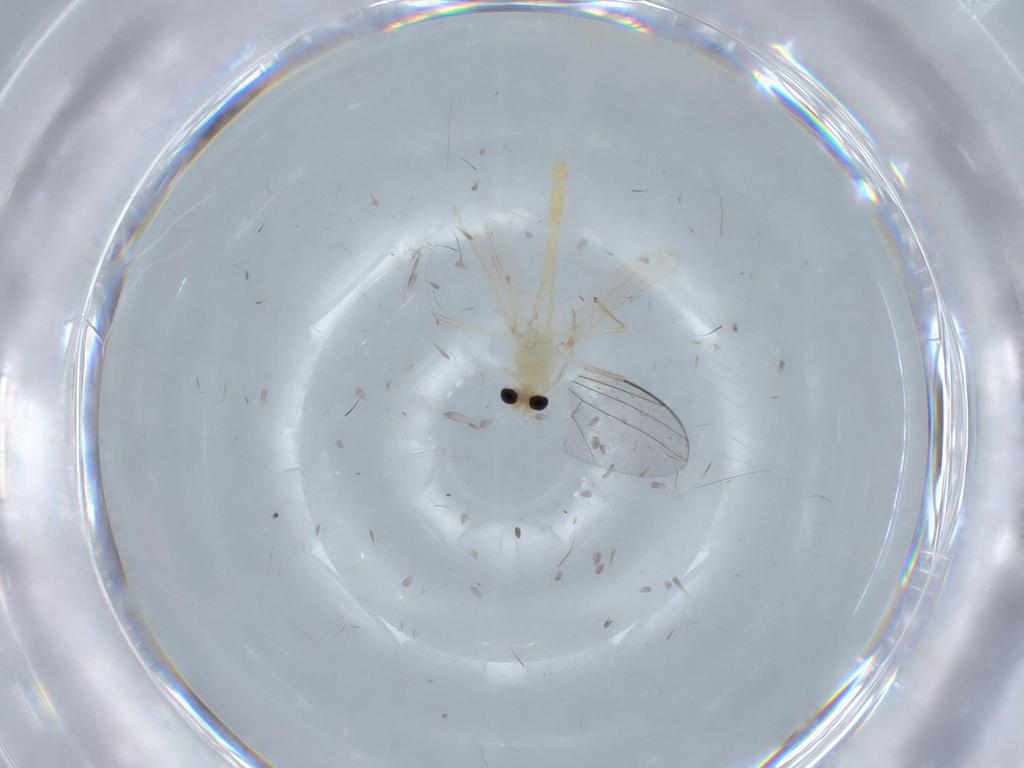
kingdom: Animalia
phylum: Arthropoda
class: Insecta
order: Diptera
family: Chironomidae
